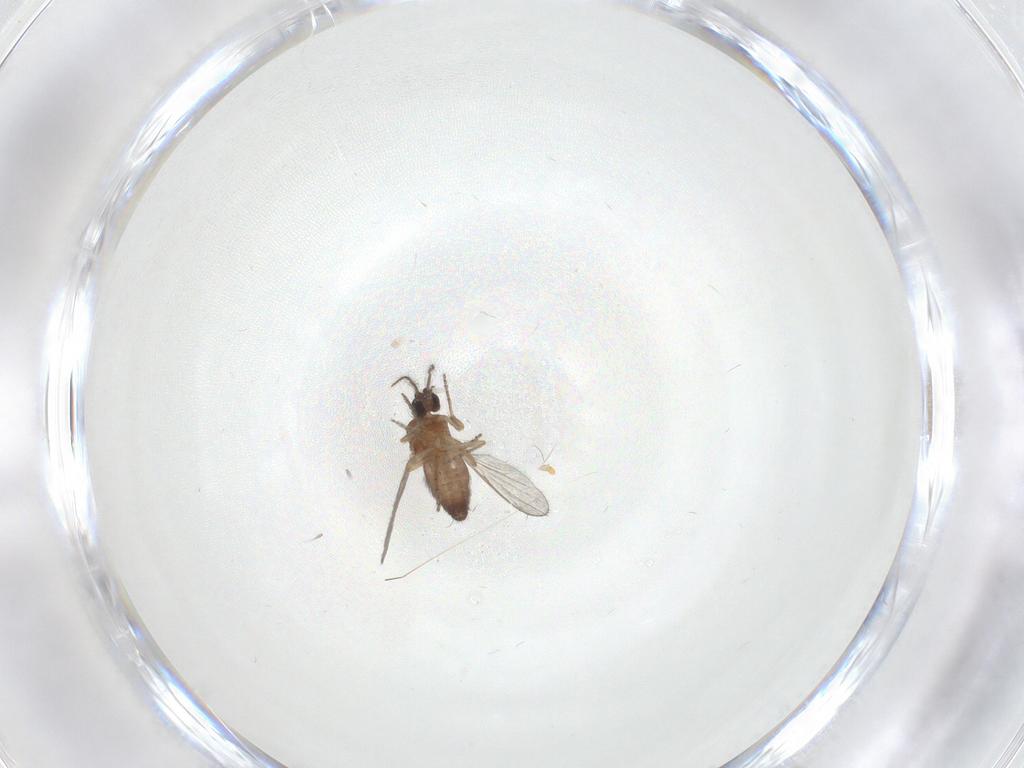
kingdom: Animalia
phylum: Arthropoda
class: Insecta
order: Diptera
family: Ceratopogonidae
